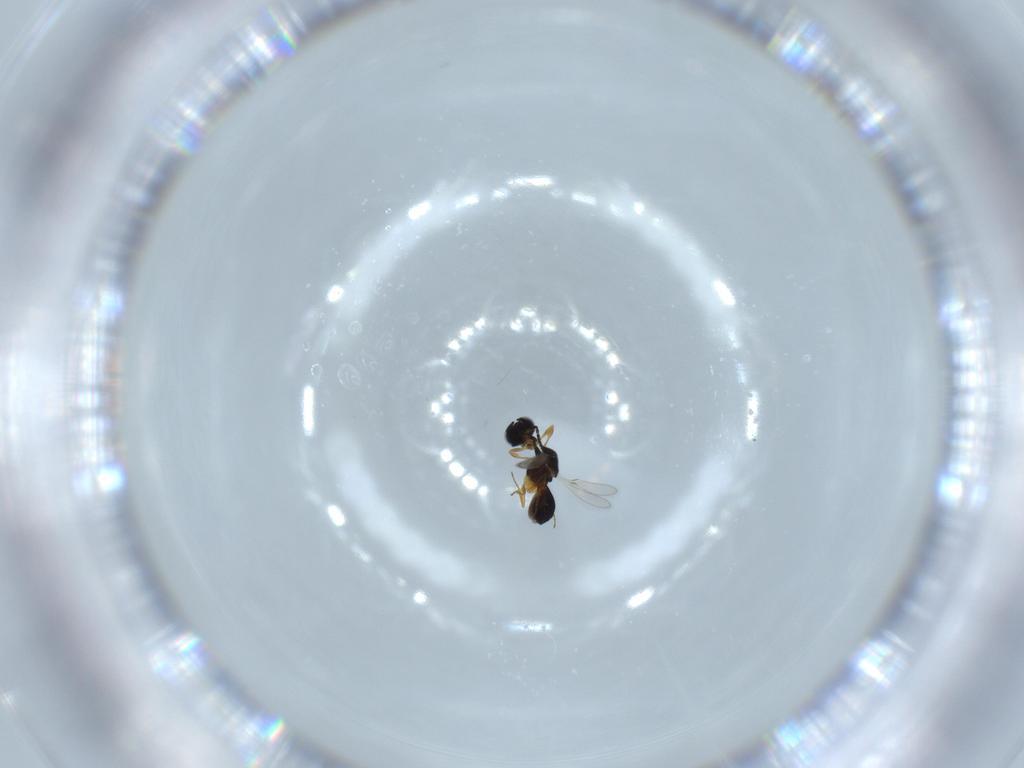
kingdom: Animalia
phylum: Arthropoda
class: Insecta
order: Hymenoptera
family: Scelionidae
